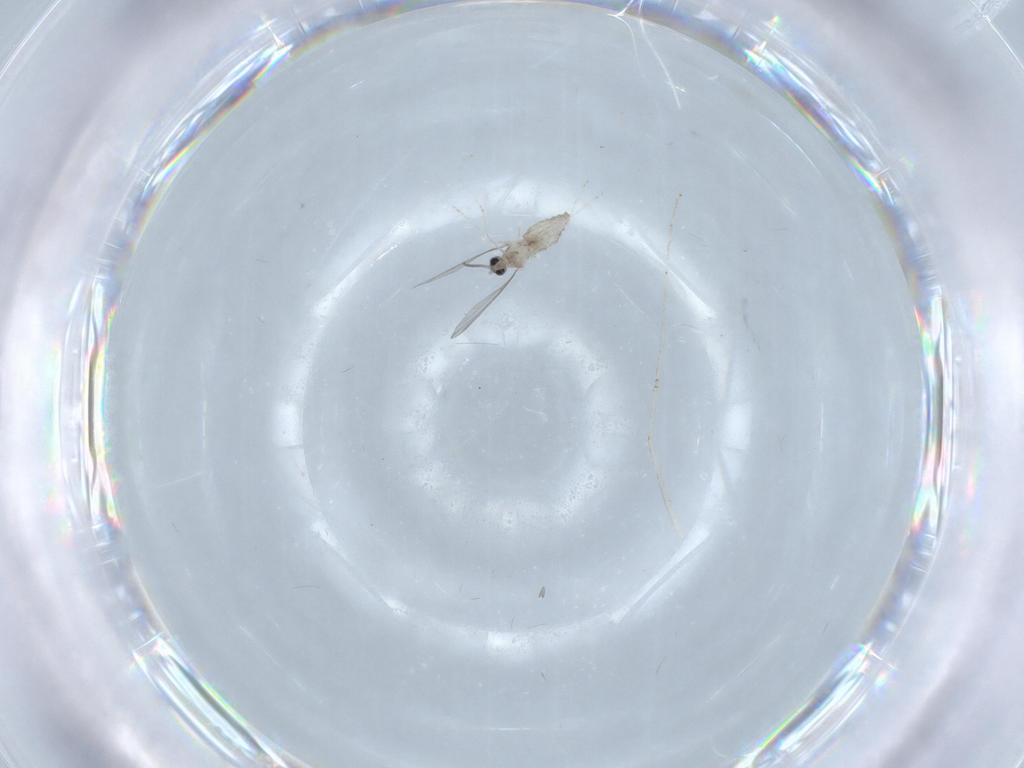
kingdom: Animalia
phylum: Arthropoda
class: Insecta
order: Diptera
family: Cecidomyiidae
